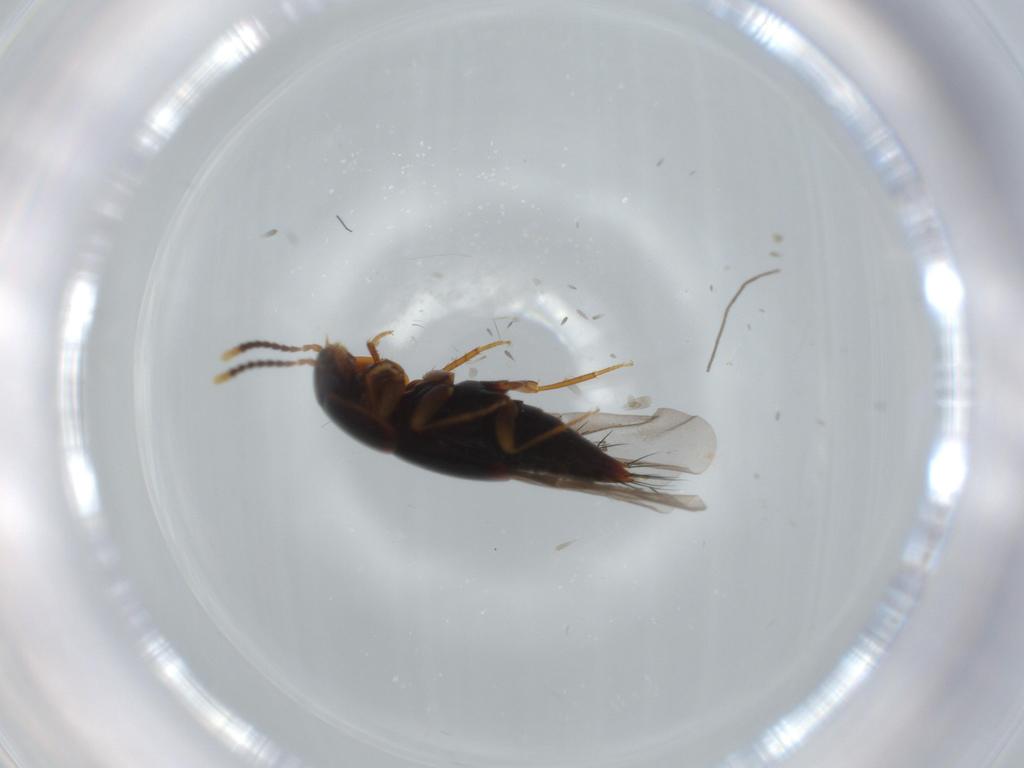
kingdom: Animalia
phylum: Arthropoda
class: Insecta
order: Coleoptera
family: Staphylinidae
